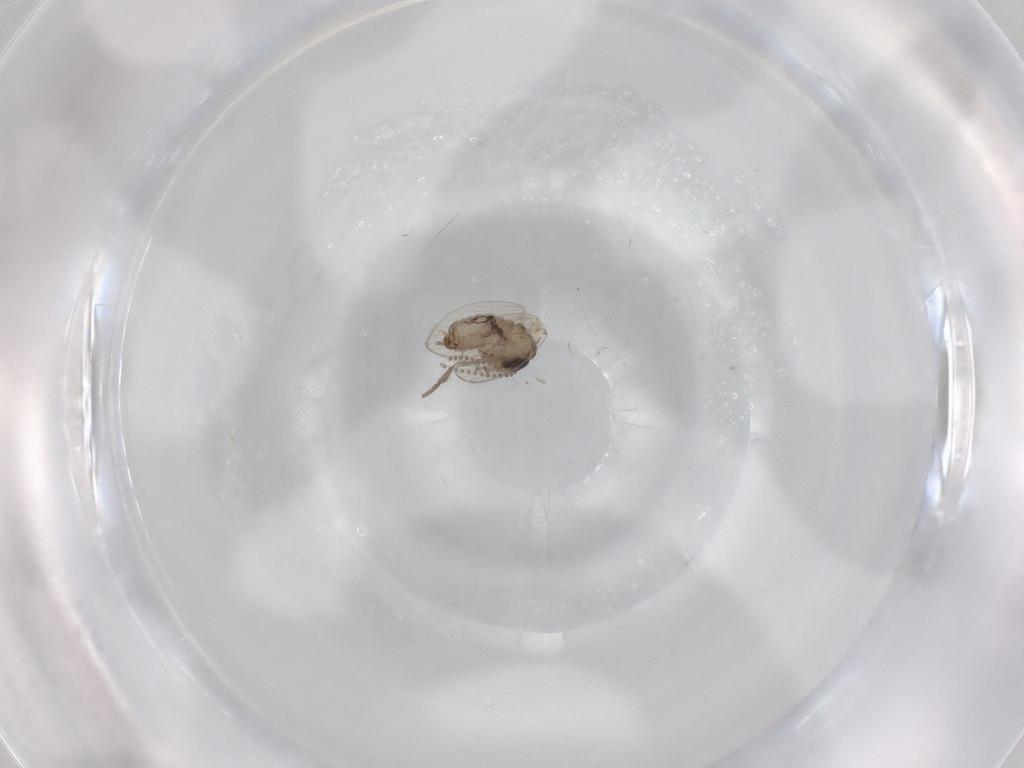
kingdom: Animalia
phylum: Arthropoda
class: Insecta
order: Diptera
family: Psychodidae
